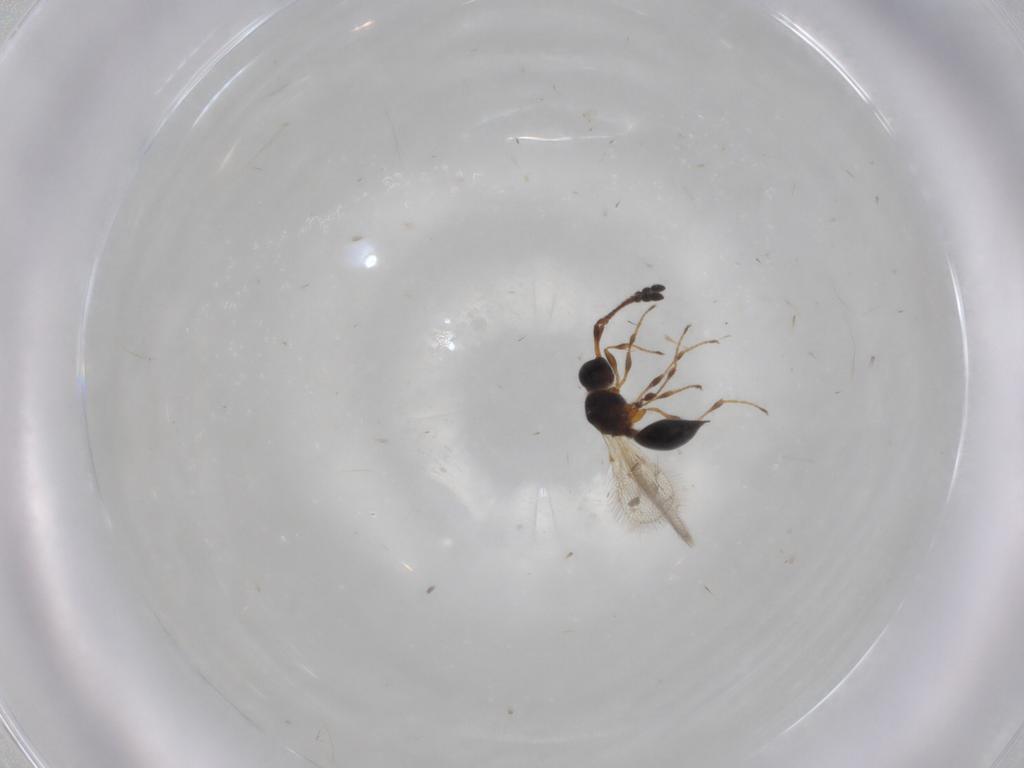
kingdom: Animalia
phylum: Arthropoda
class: Insecta
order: Hymenoptera
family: Diapriidae
